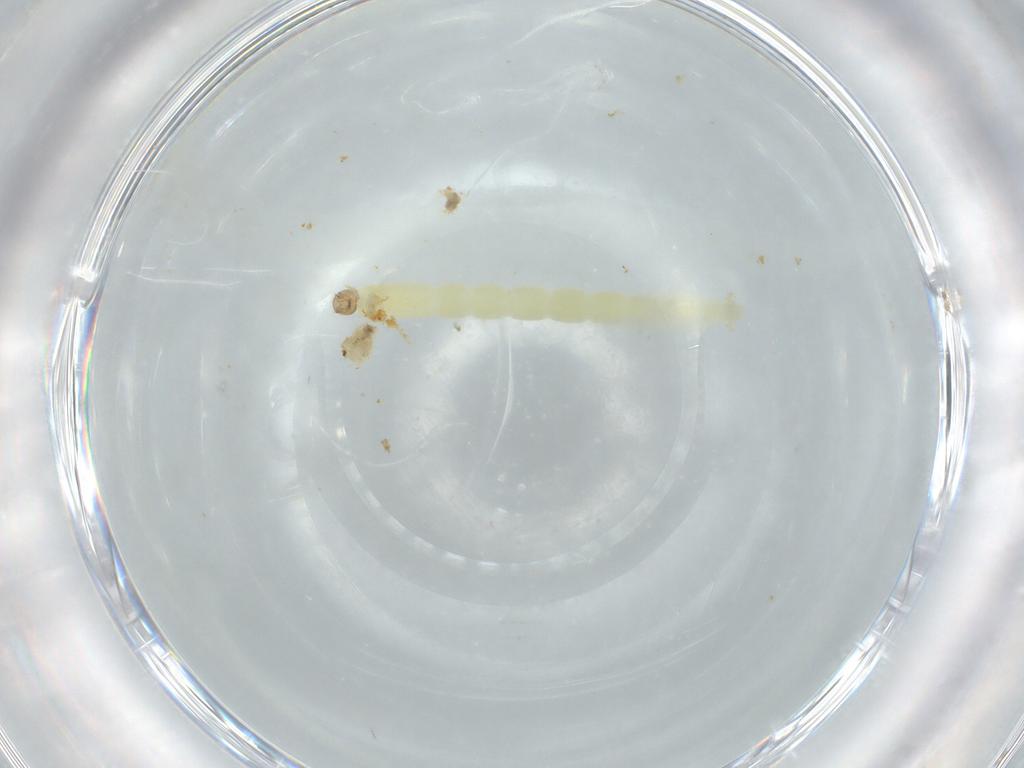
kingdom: Animalia
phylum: Arthropoda
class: Insecta
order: Diptera
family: Chironomidae
